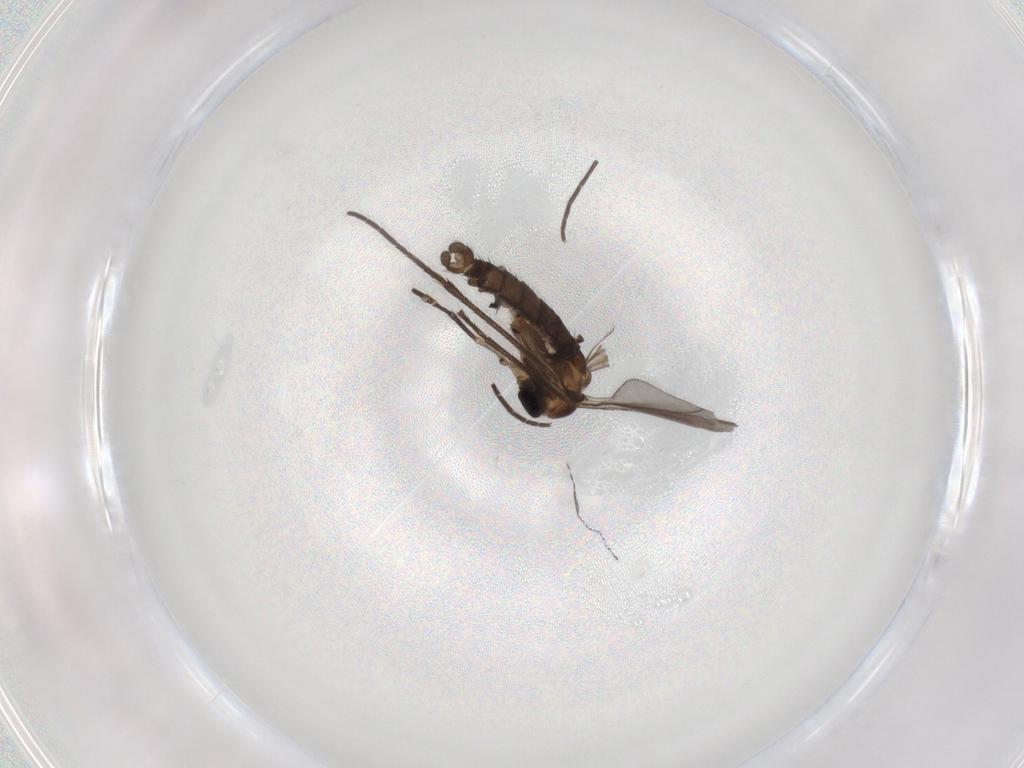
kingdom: Animalia
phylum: Arthropoda
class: Insecta
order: Diptera
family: Sciaridae
